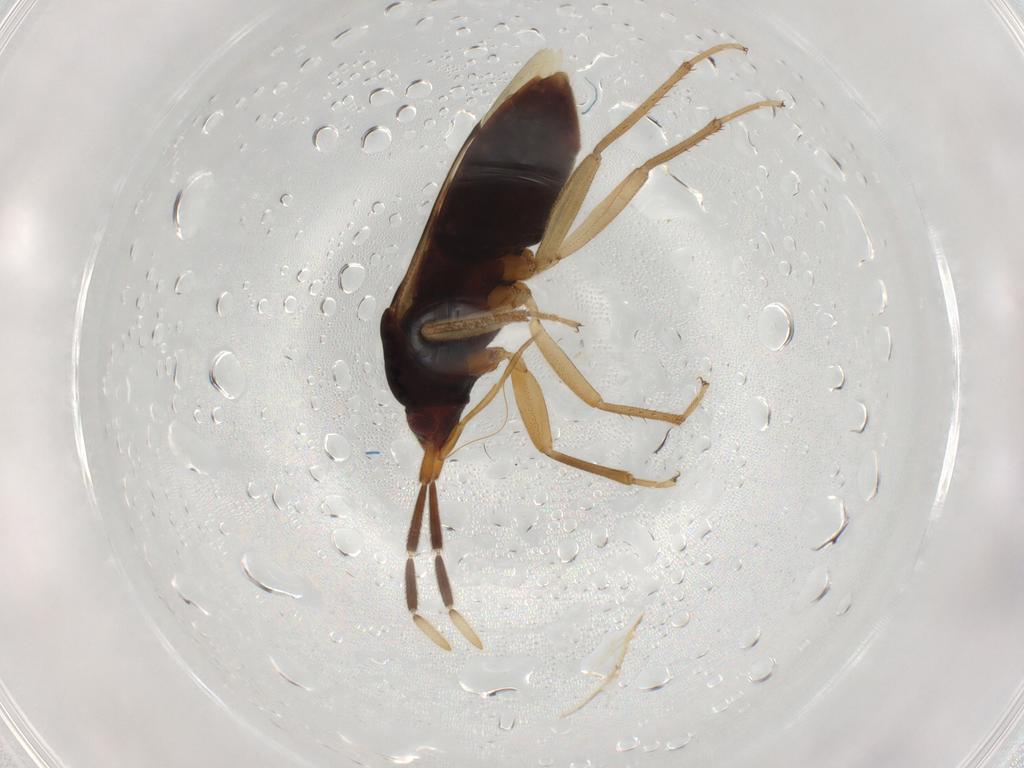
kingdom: Animalia
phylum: Arthropoda
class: Insecta
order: Hemiptera
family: Rhyparochromidae
